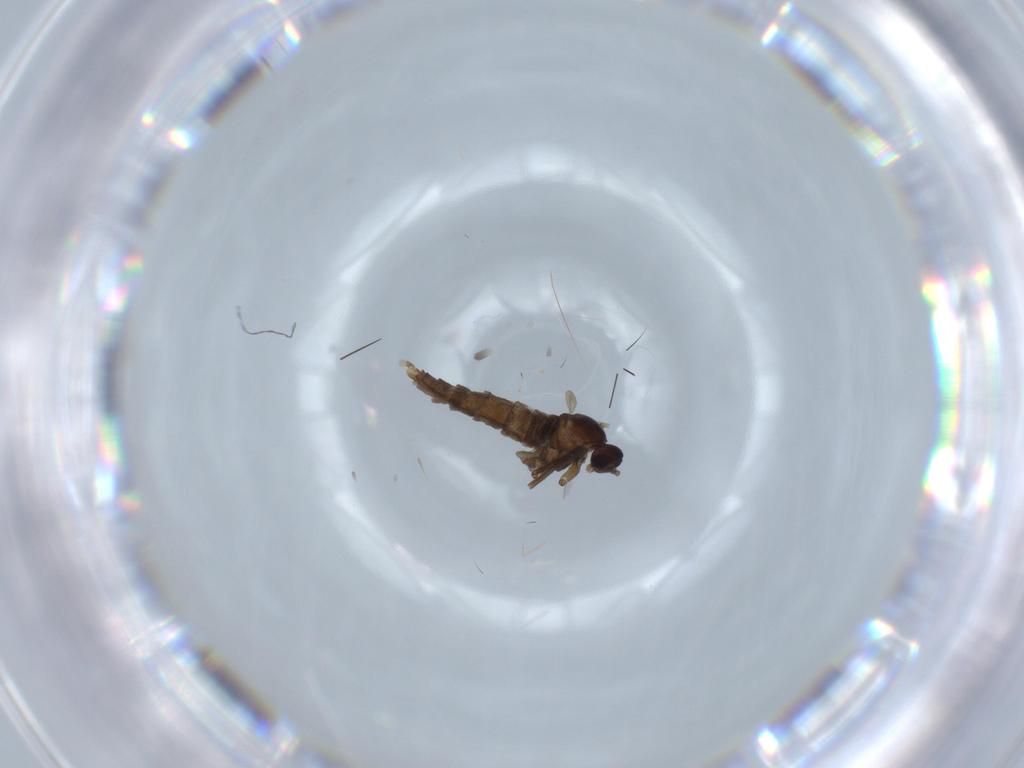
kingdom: Animalia
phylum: Arthropoda
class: Insecta
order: Diptera
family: Cecidomyiidae
